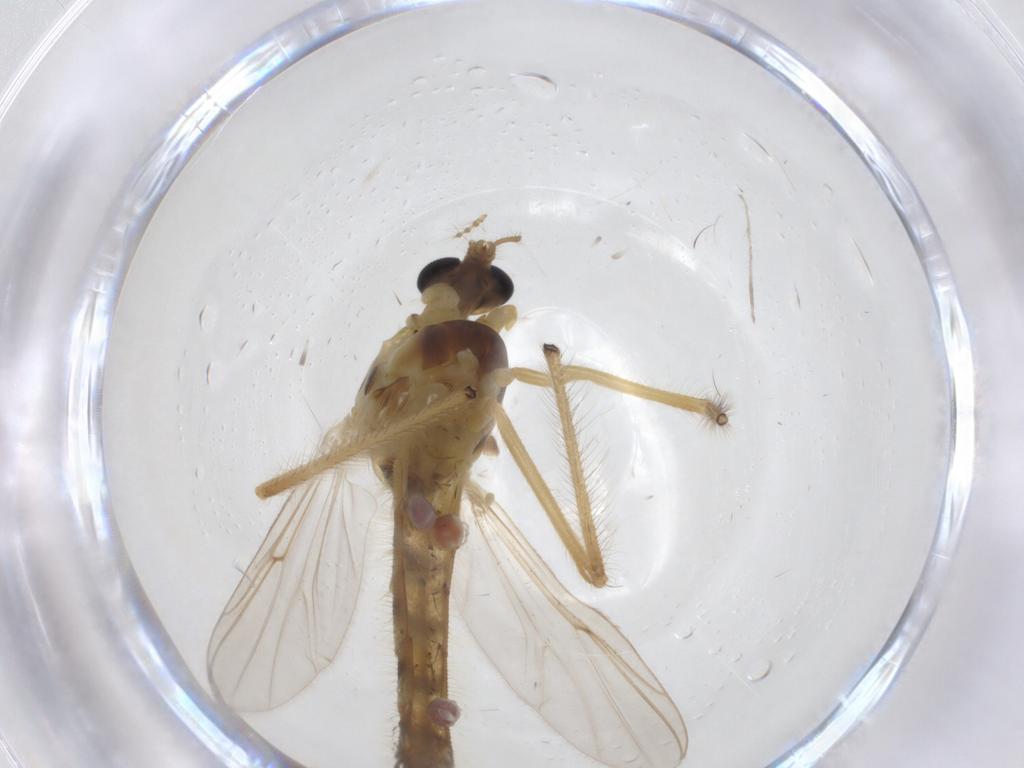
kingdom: Animalia
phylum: Arthropoda
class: Insecta
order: Diptera
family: Chironomidae
